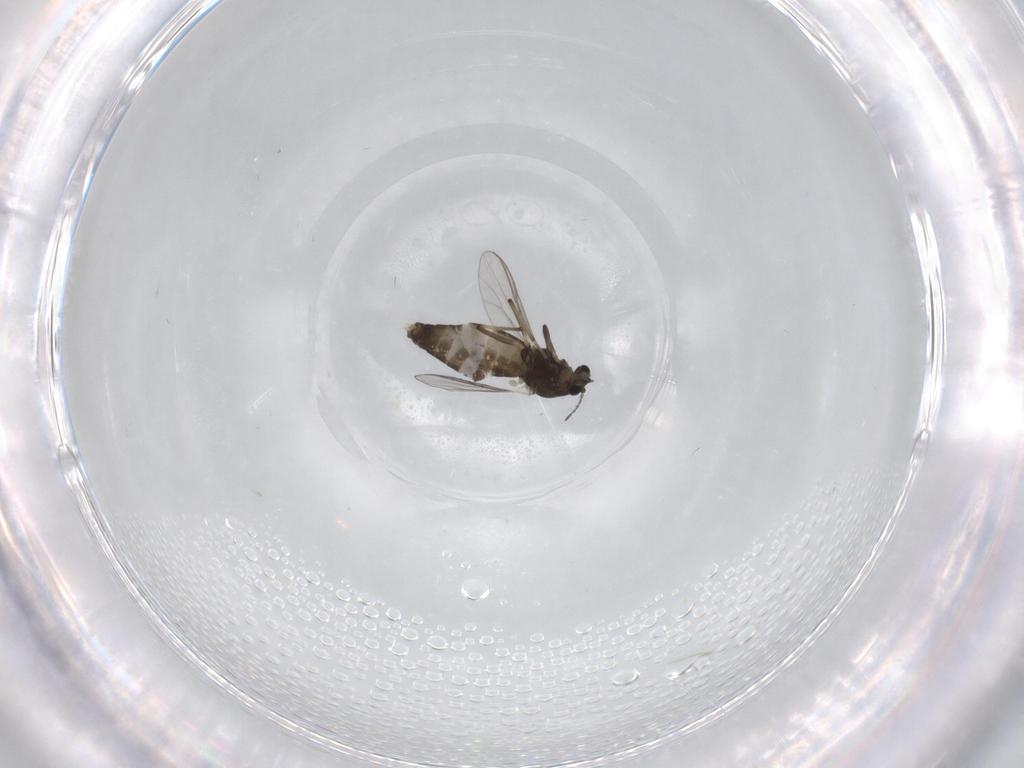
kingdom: Animalia
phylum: Arthropoda
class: Insecta
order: Diptera
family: Chironomidae
